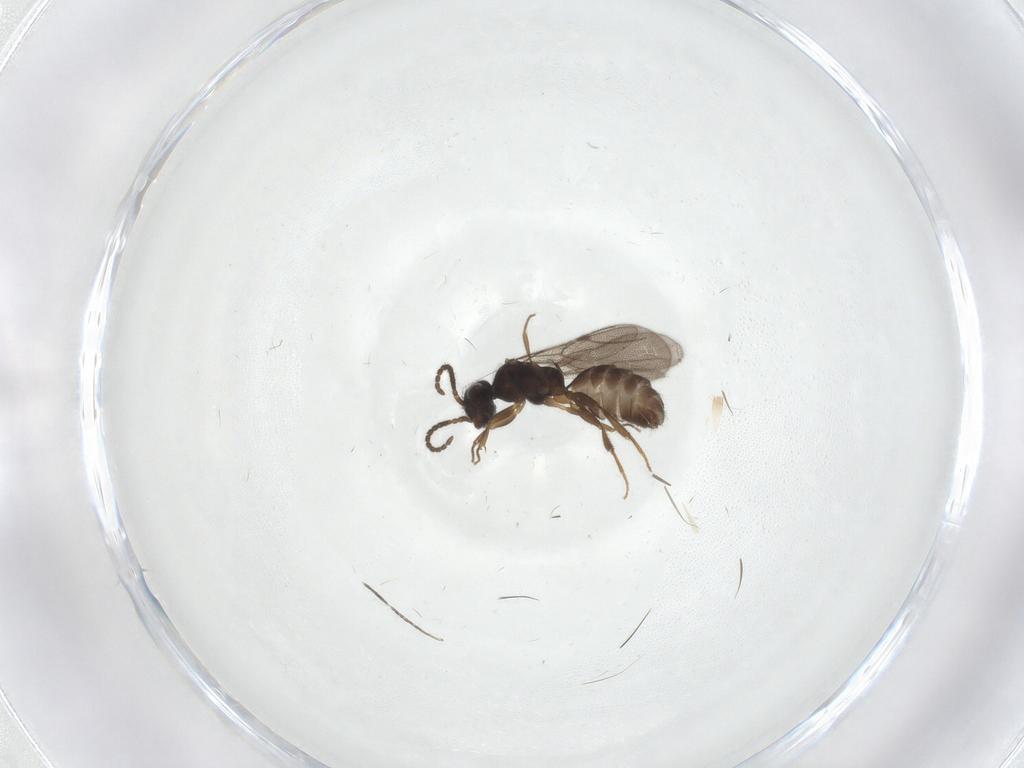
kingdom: Animalia
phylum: Arthropoda
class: Insecta
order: Hymenoptera
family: Bethylidae
